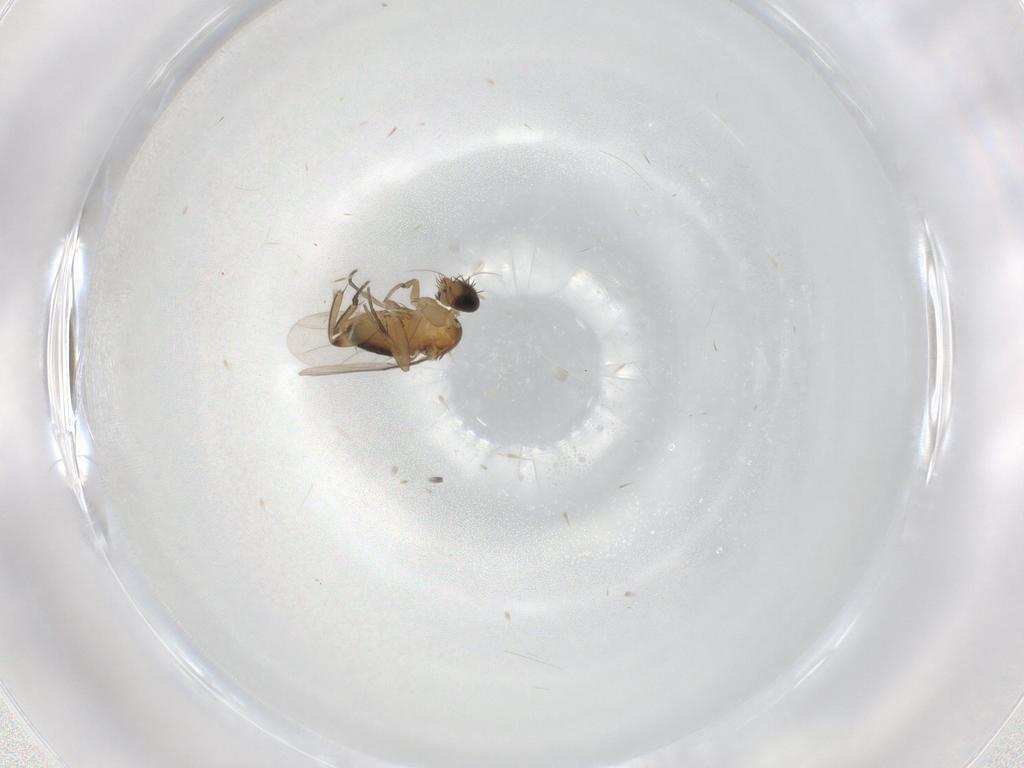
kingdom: Animalia
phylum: Arthropoda
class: Insecta
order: Diptera
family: Phoridae
